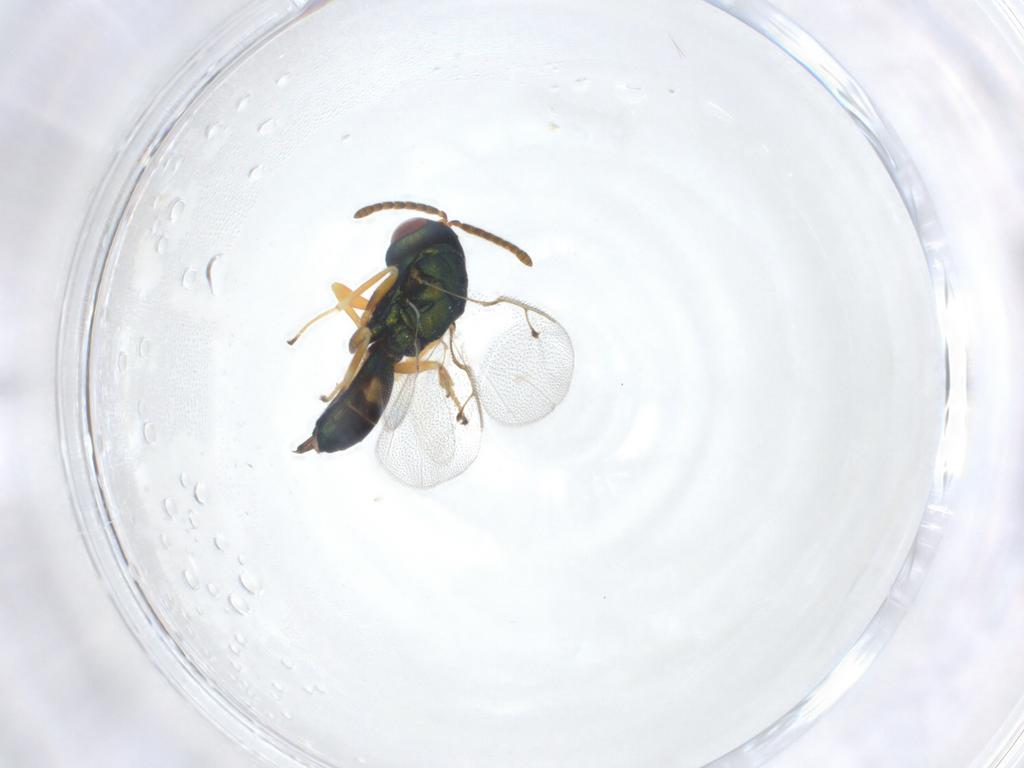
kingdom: Animalia
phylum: Arthropoda
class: Insecta
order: Hymenoptera
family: Pteromalidae
